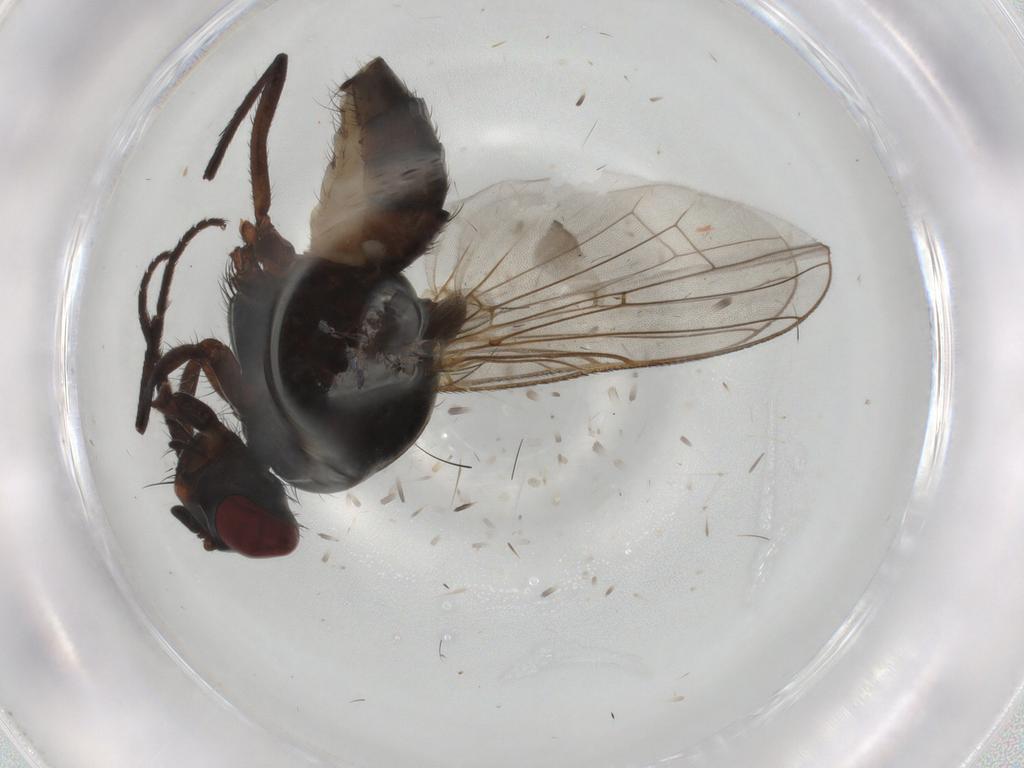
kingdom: Animalia
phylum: Arthropoda
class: Insecta
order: Diptera
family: Anthomyiidae
